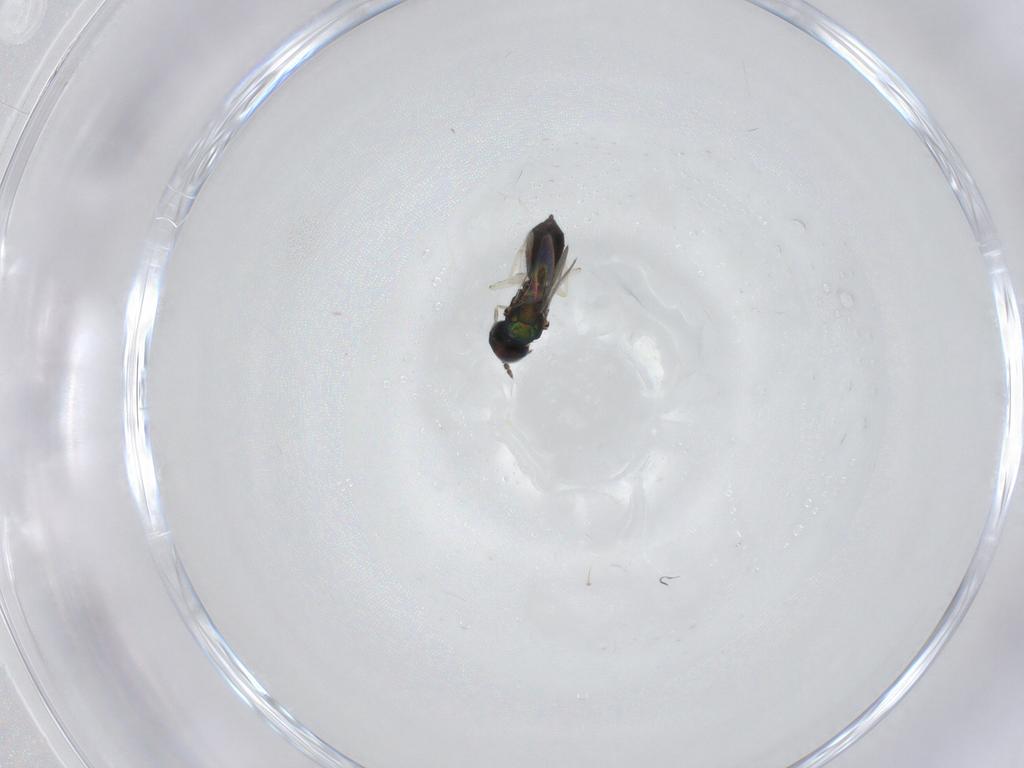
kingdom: Animalia
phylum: Arthropoda
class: Insecta
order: Hymenoptera
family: Eulophidae
